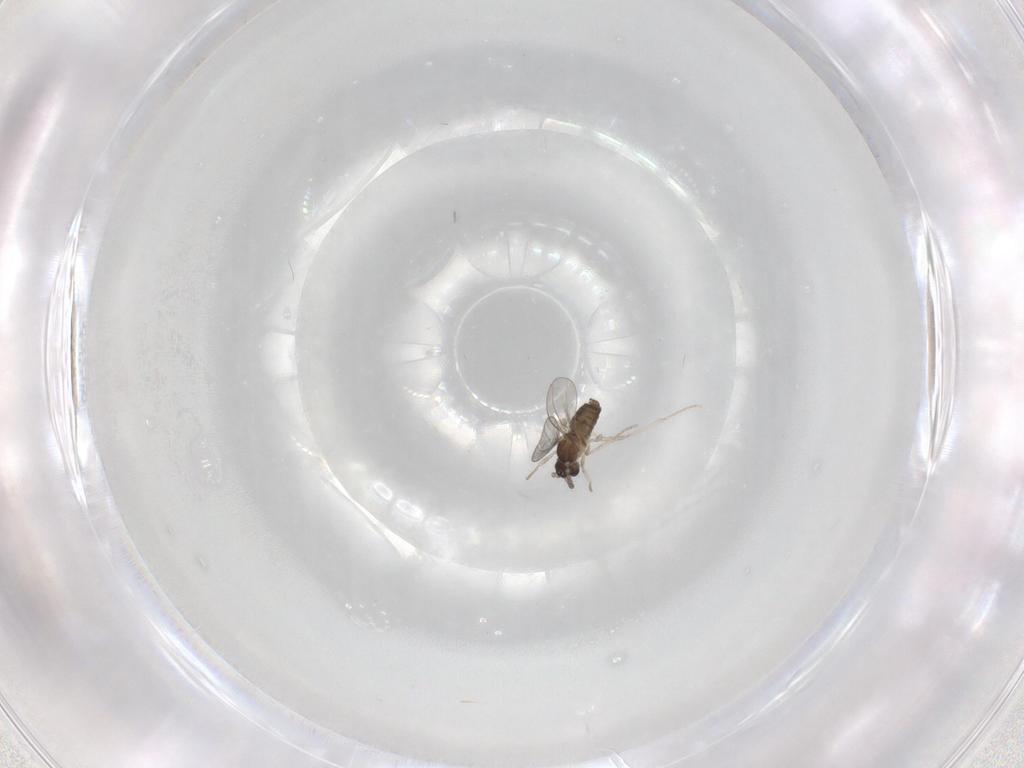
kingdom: Animalia
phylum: Arthropoda
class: Insecta
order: Diptera
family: Cecidomyiidae
